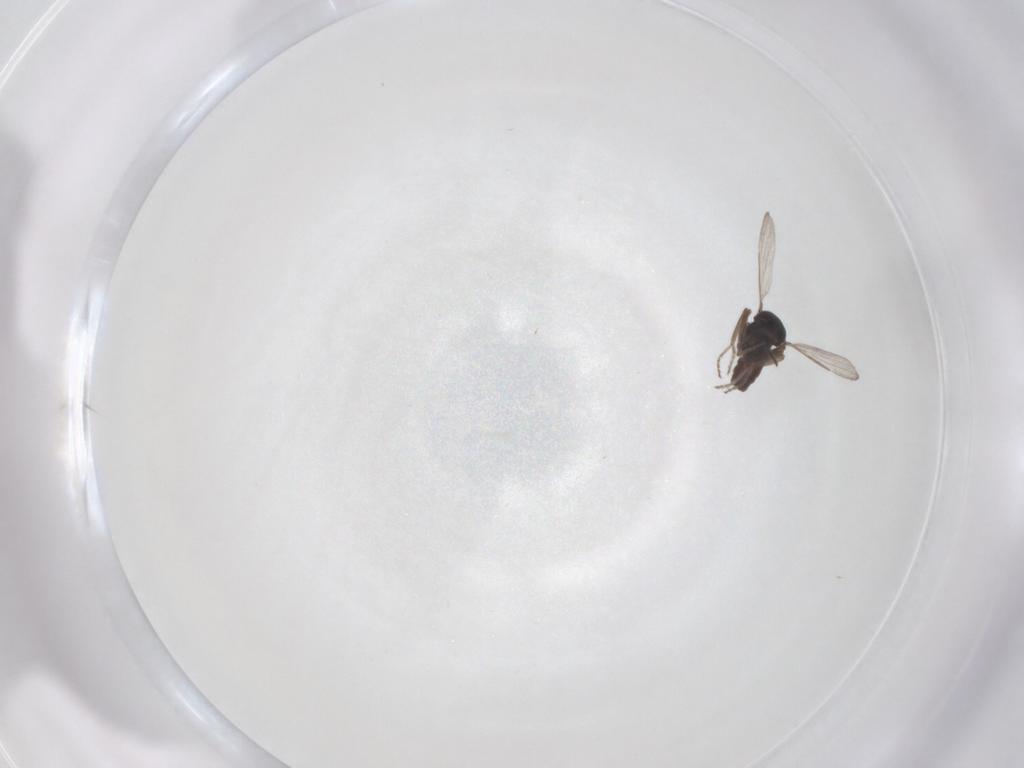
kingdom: Animalia
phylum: Arthropoda
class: Insecta
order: Diptera
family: Ceratopogonidae
